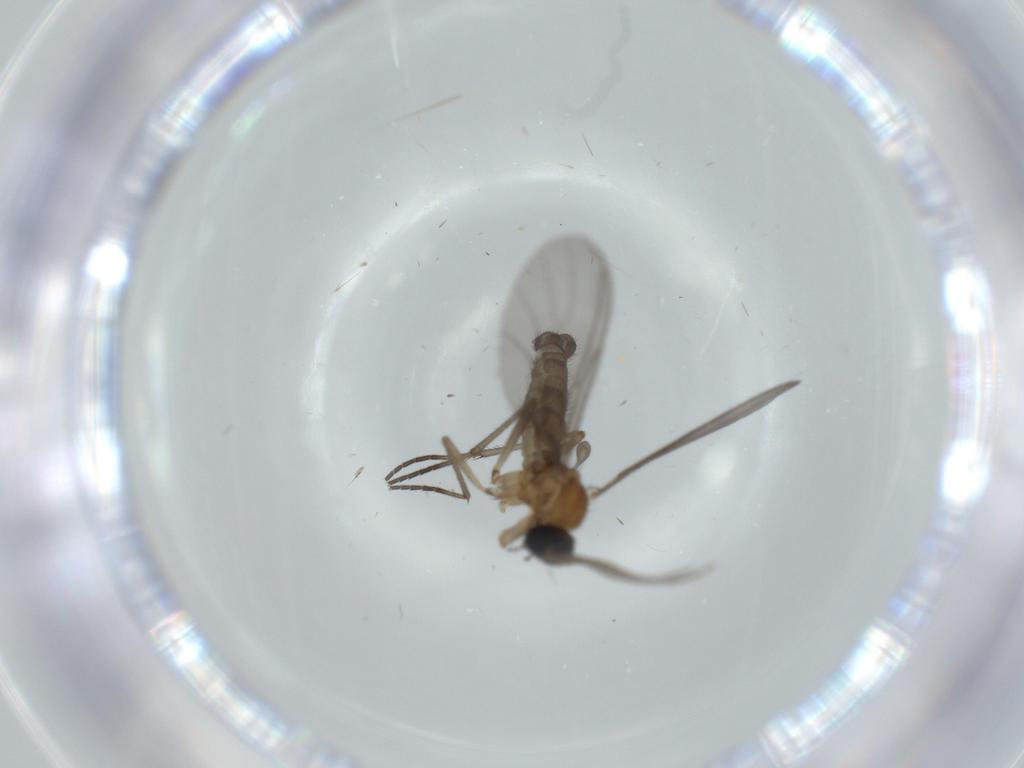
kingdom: Animalia
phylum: Arthropoda
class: Insecta
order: Diptera
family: Sciaridae
